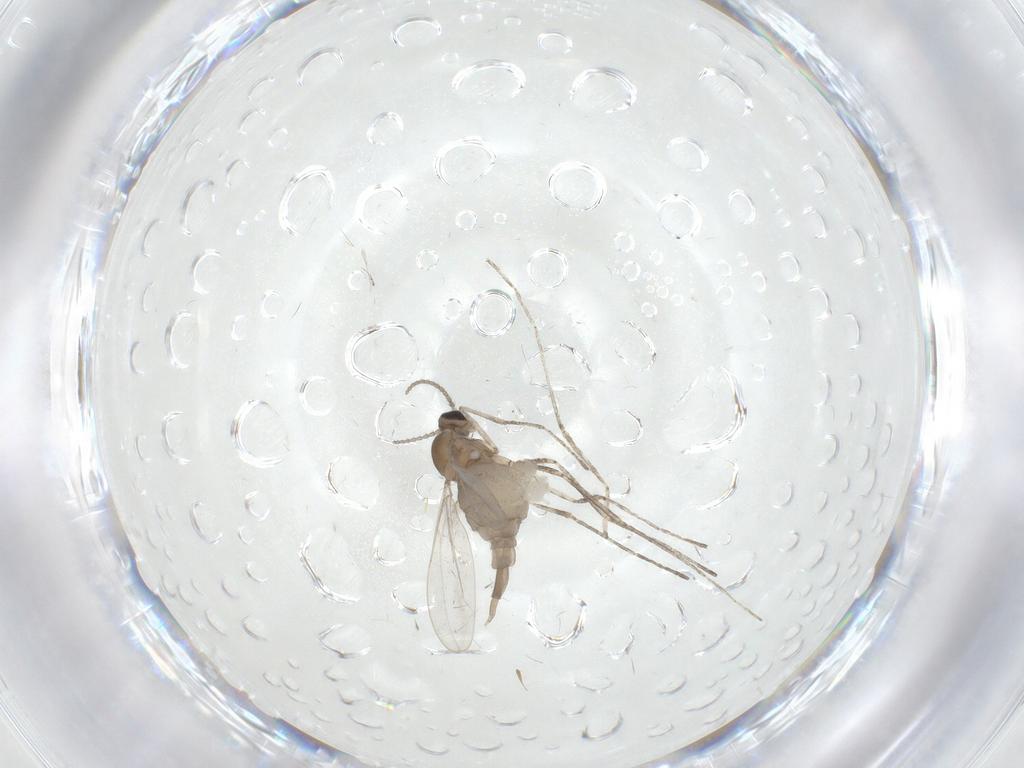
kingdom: Animalia
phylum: Arthropoda
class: Insecta
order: Diptera
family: Cecidomyiidae
